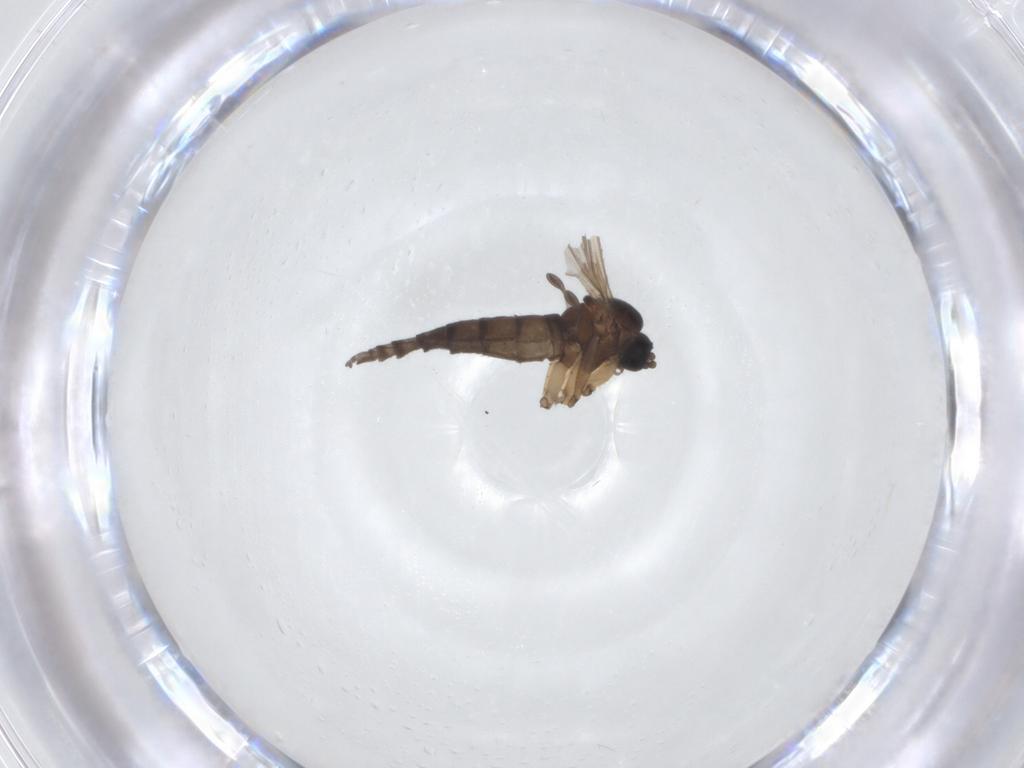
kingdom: Animalia
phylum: Arthropoda
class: Insecta
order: Diptera
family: Sciaridae
